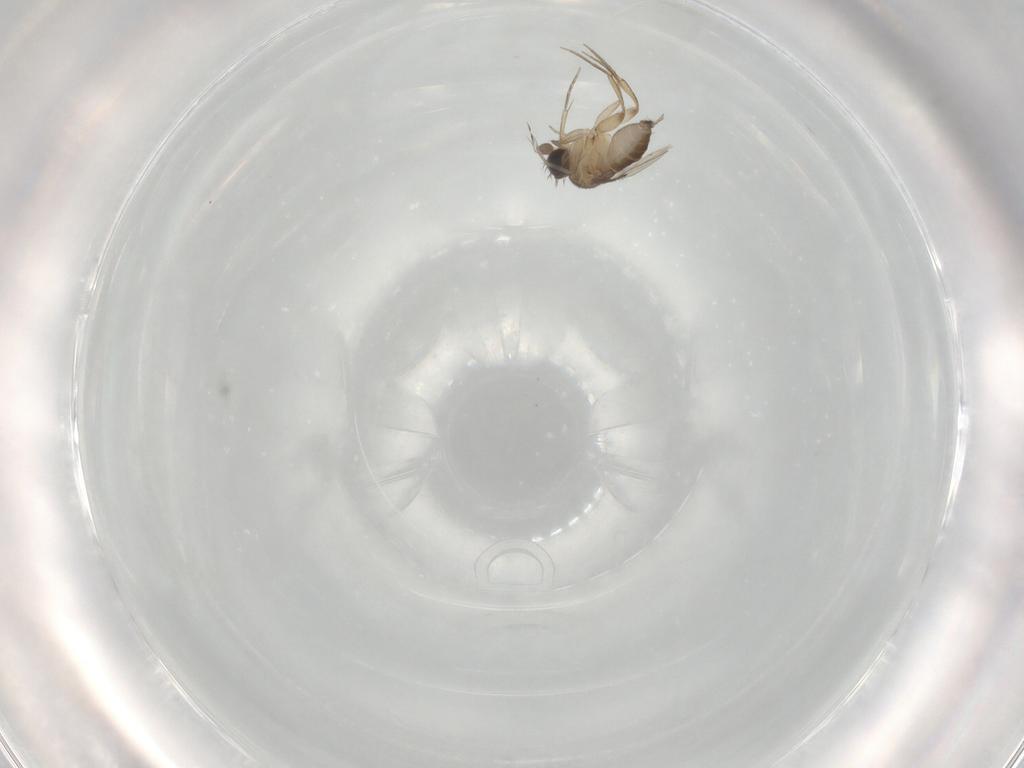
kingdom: Animalia
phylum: Arthropoda
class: Insecta
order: Diptera
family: Phoridae
